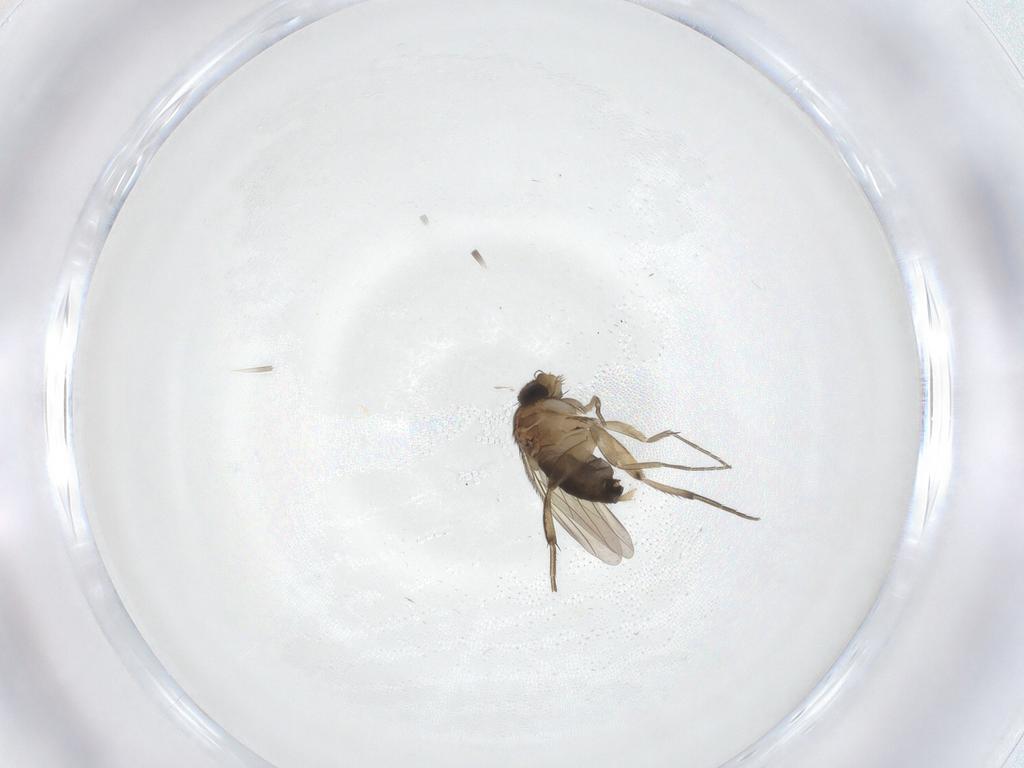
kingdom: Animalia
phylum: Arthropoda
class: Insecta
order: Diptera
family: Phoridae
